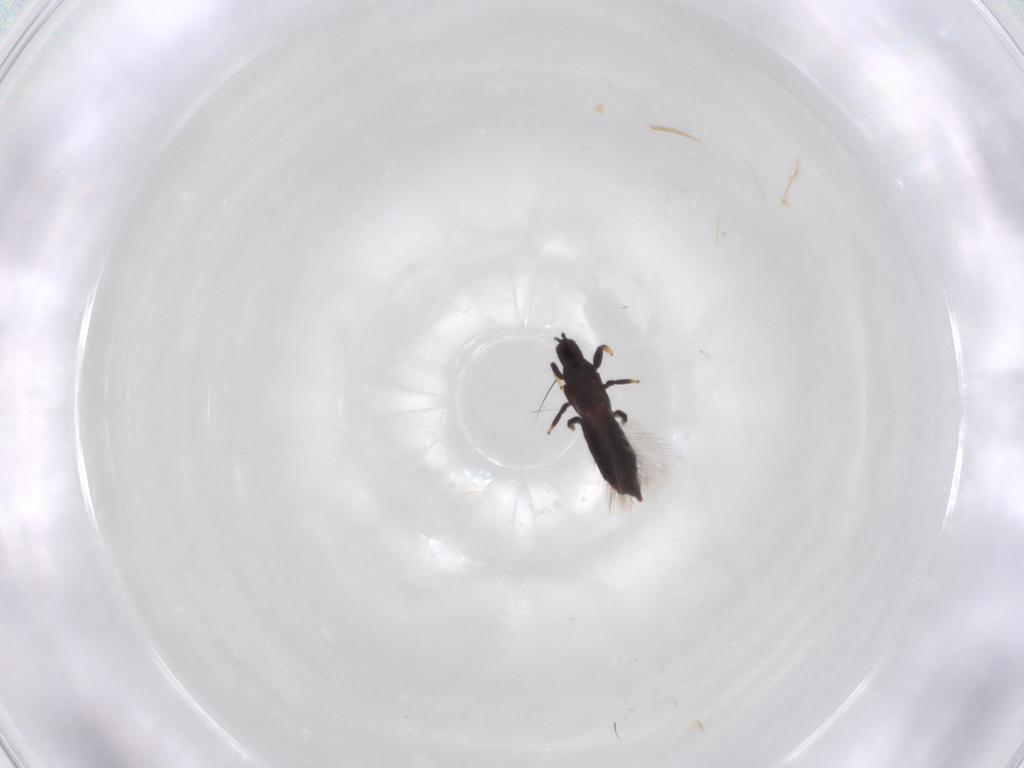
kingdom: Animalia
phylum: Arthropoda
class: Insecta
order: Thysanoptera
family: Phlaeothripidae
